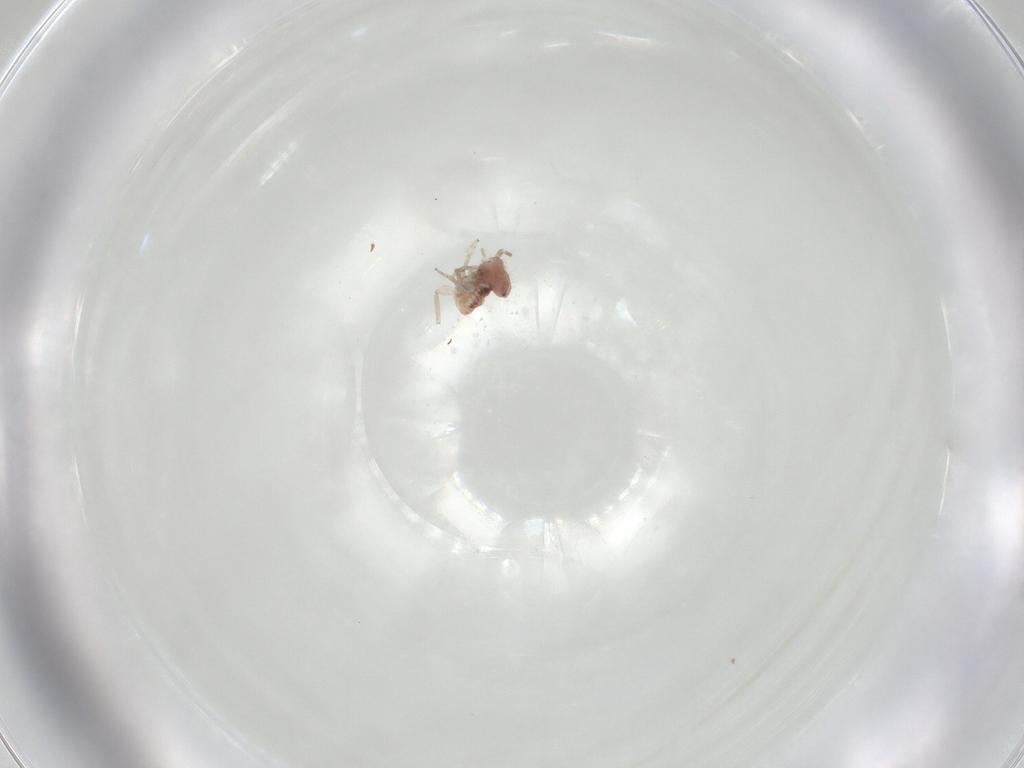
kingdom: Animalia
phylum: Arthropoda
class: Collembola
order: Symphypleona
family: Katiannidae
